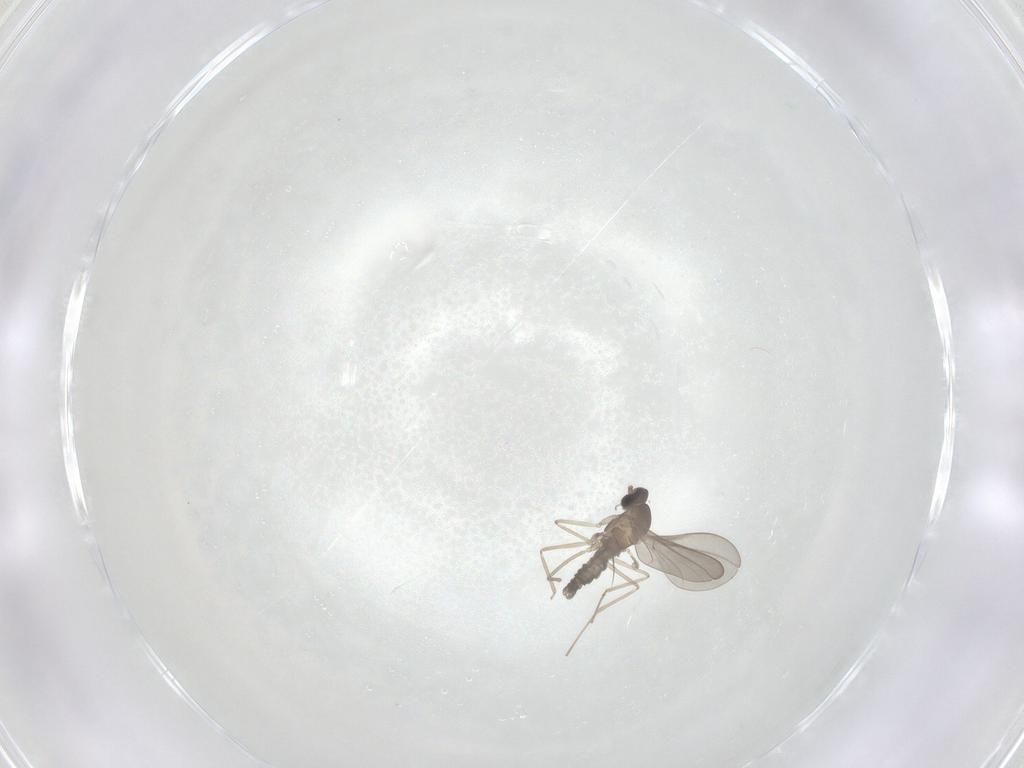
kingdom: Animalia
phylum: Arthropoda
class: Insecta
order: Diptera
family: Cecidomyiidae
